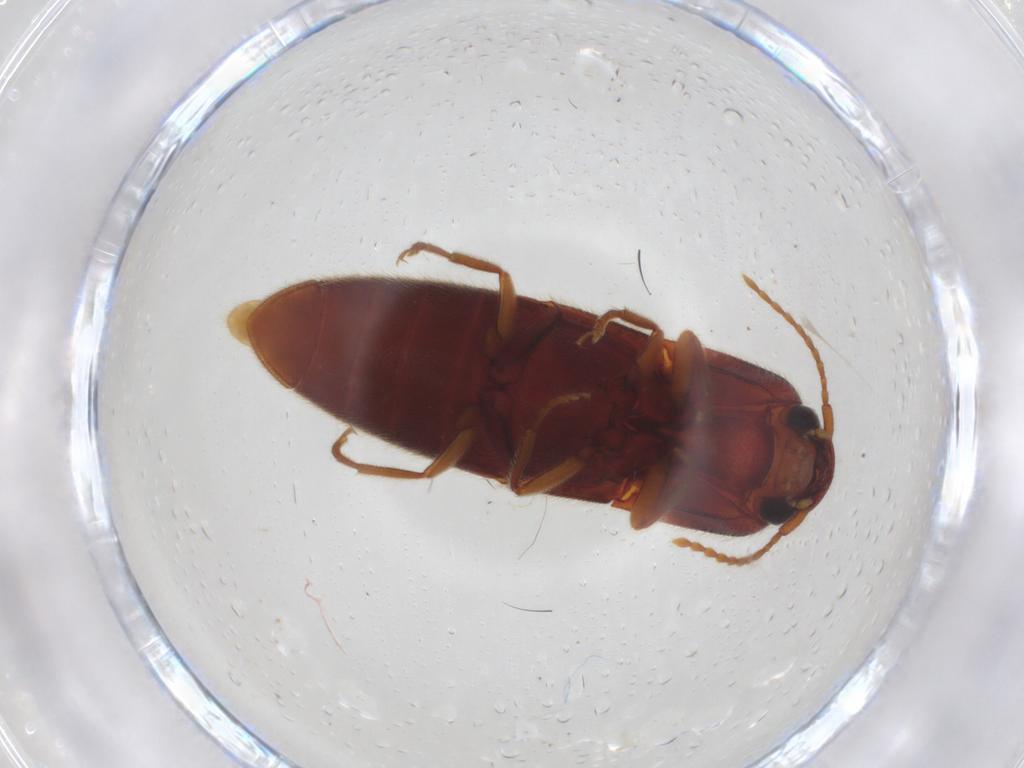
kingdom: Animalia
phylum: Arthropoda
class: Insecta
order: Coleoptera
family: Elateridae
